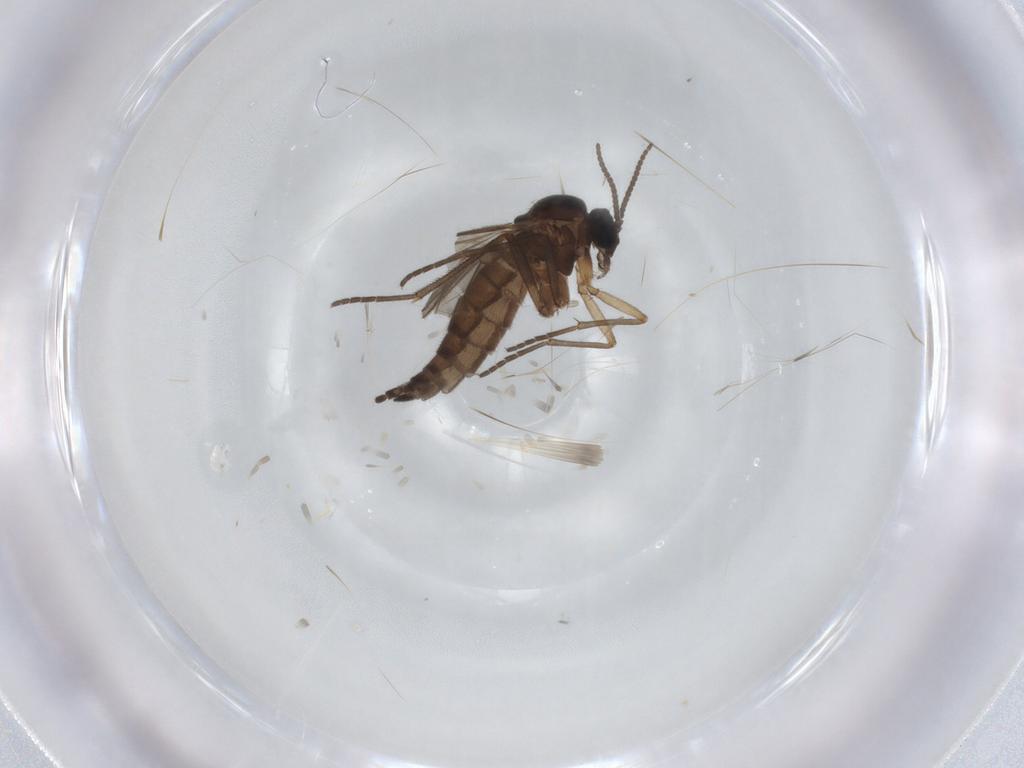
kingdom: Animalia
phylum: Arthropoda
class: Insecta
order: Diptera
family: Sciaridae
